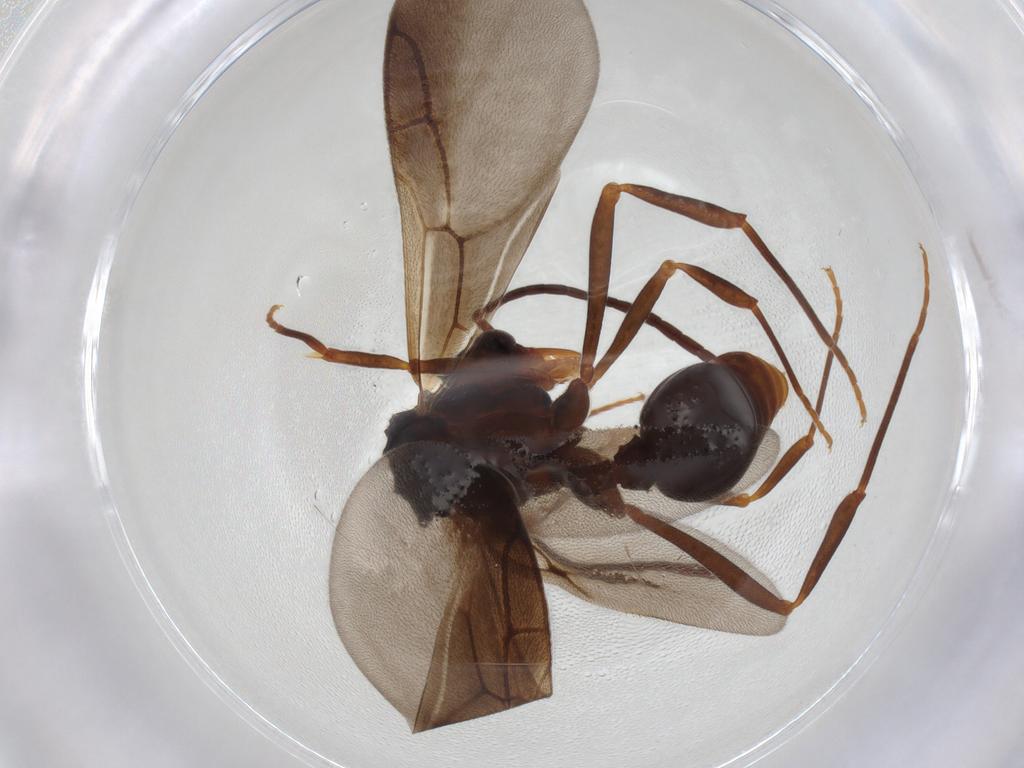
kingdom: Animalia
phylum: Arthropoda
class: Insecta
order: Hymenoptera
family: Formicidae
